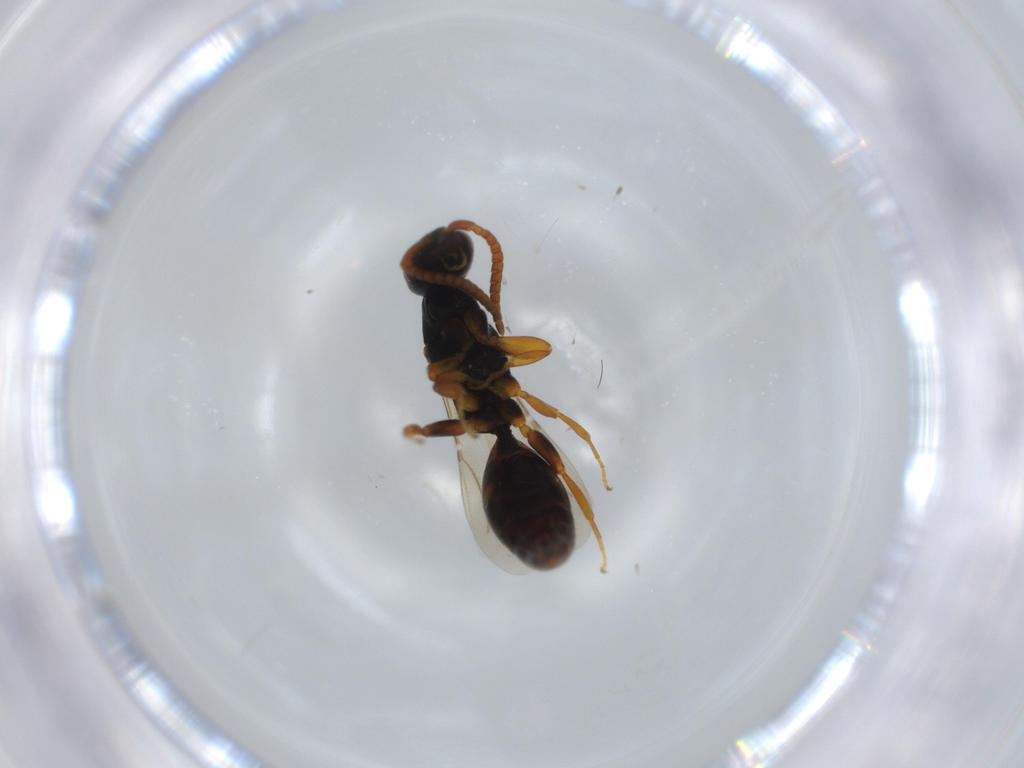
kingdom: Animalia
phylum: Arthropoda
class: Insecta
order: Hymenoptera
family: Bethylidae
